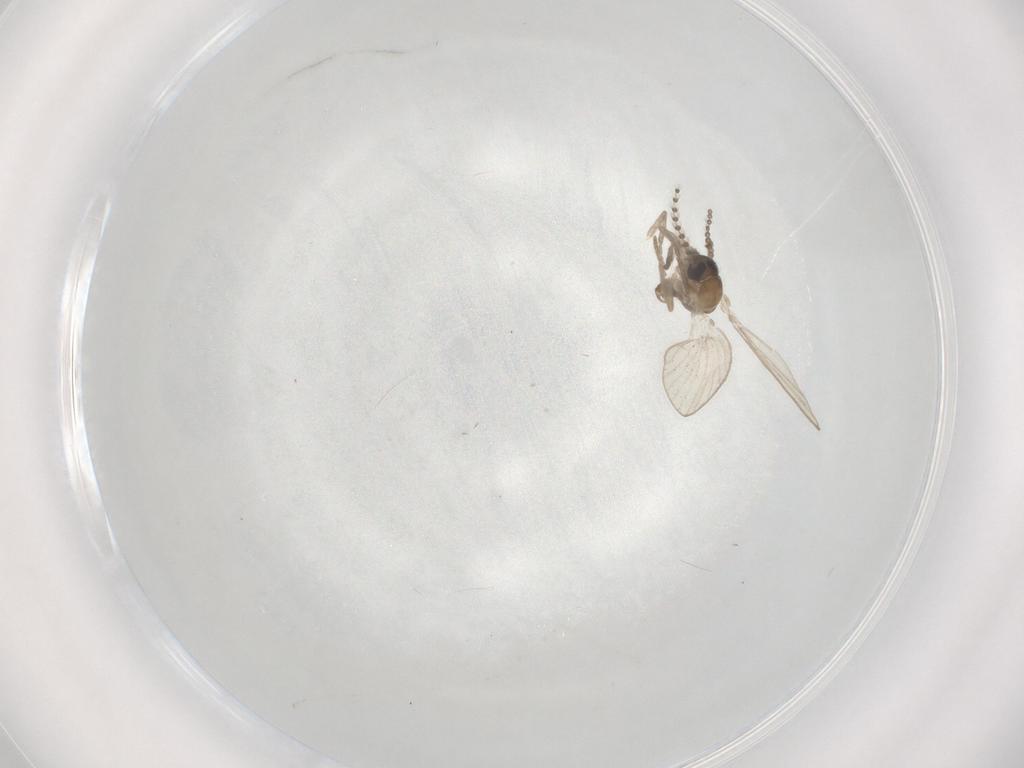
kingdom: Animalia
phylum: Arthropoda
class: Insecta
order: Diptera
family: Psychodidae
